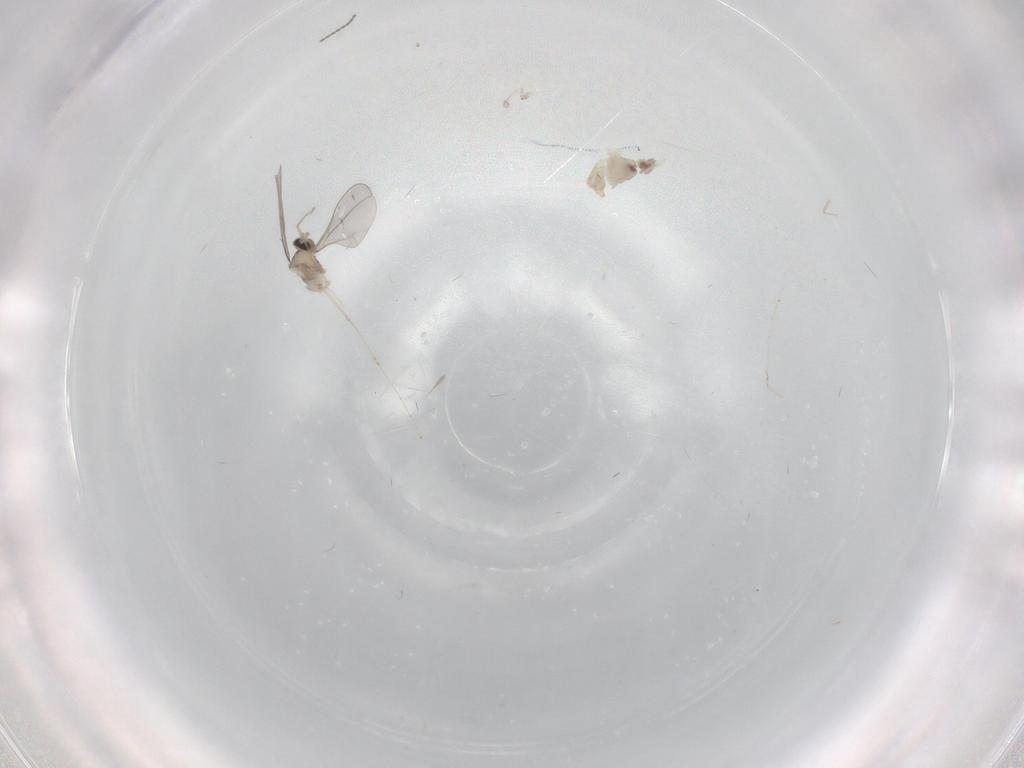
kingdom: Animalia
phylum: Arthropoda
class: Insecta
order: Diptera
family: Cecidomyiidae
